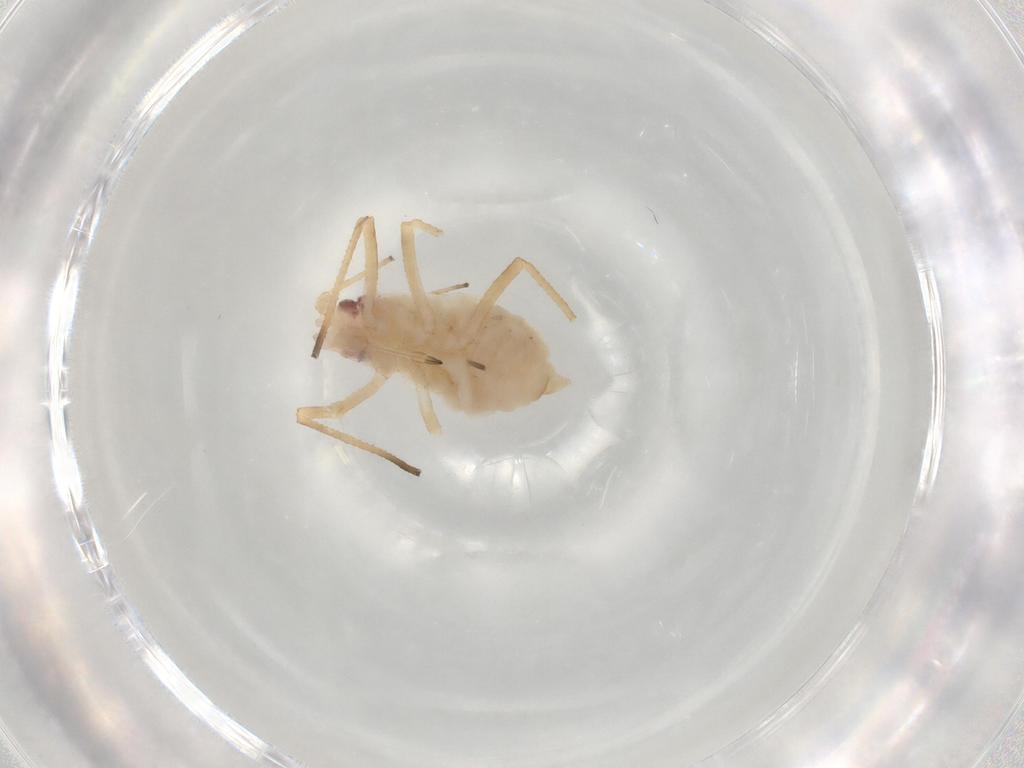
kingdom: Animalia
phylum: Arthropoda
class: Insecta
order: Hemiptera
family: Aphididae
